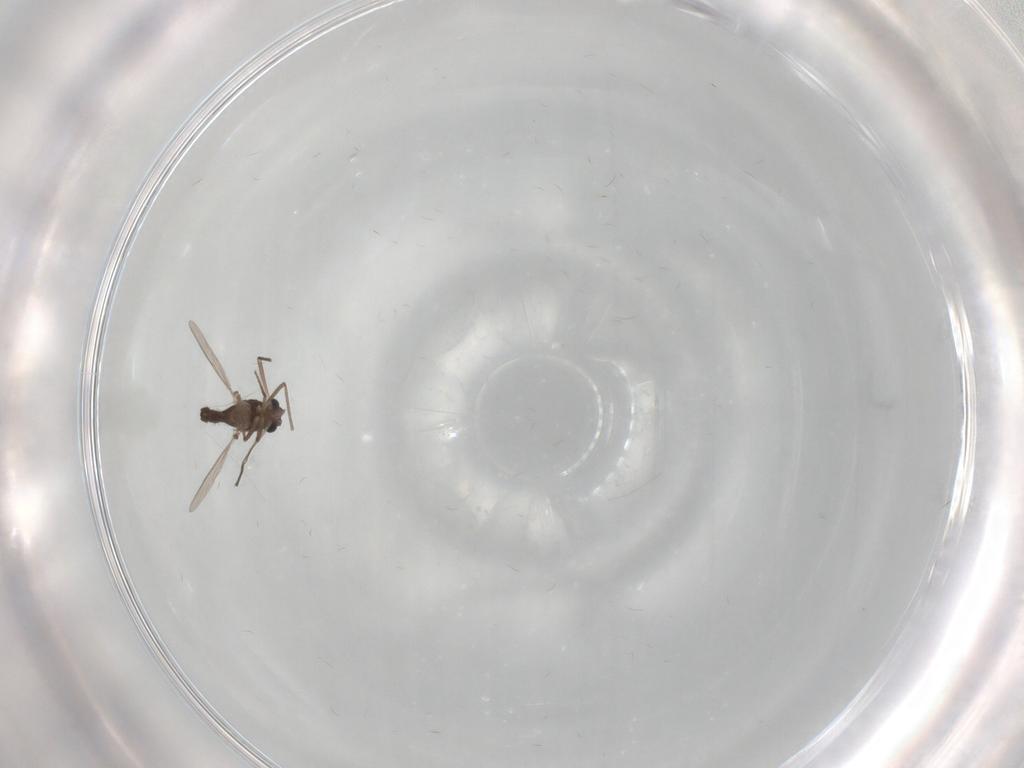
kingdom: Animalia
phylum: Arthropoda
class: Insecta
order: Diptera
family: Chironomidae
